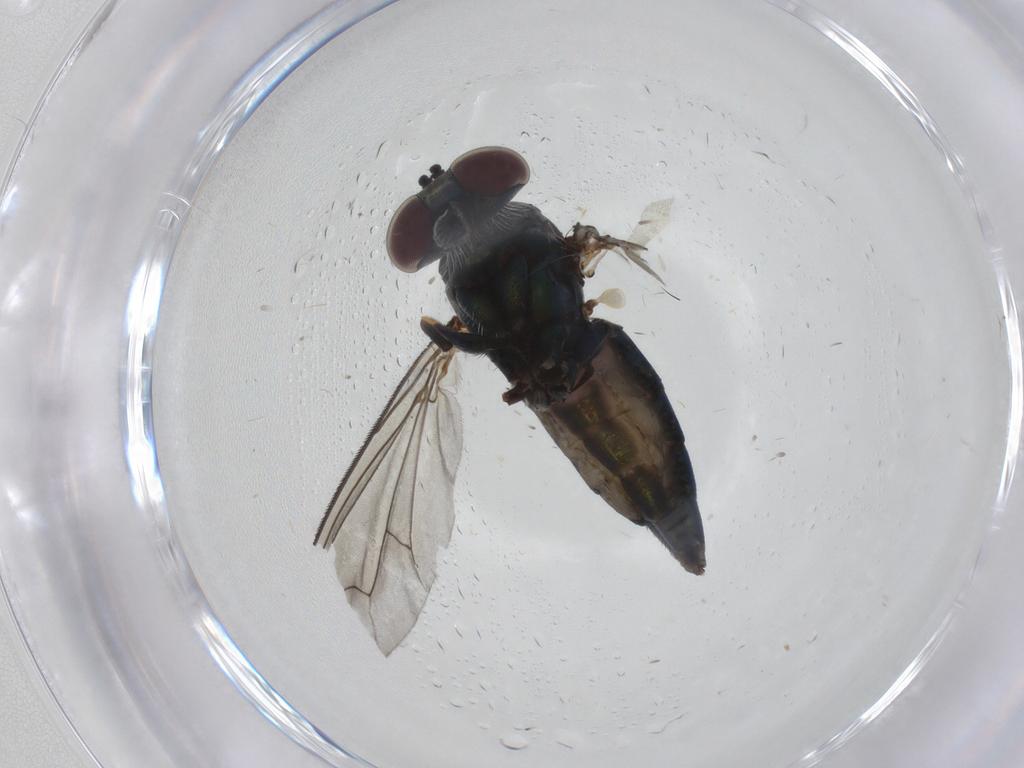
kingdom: Animalia
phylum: Arthropoda
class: Insecta
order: Diptera
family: Dolichopodidae
